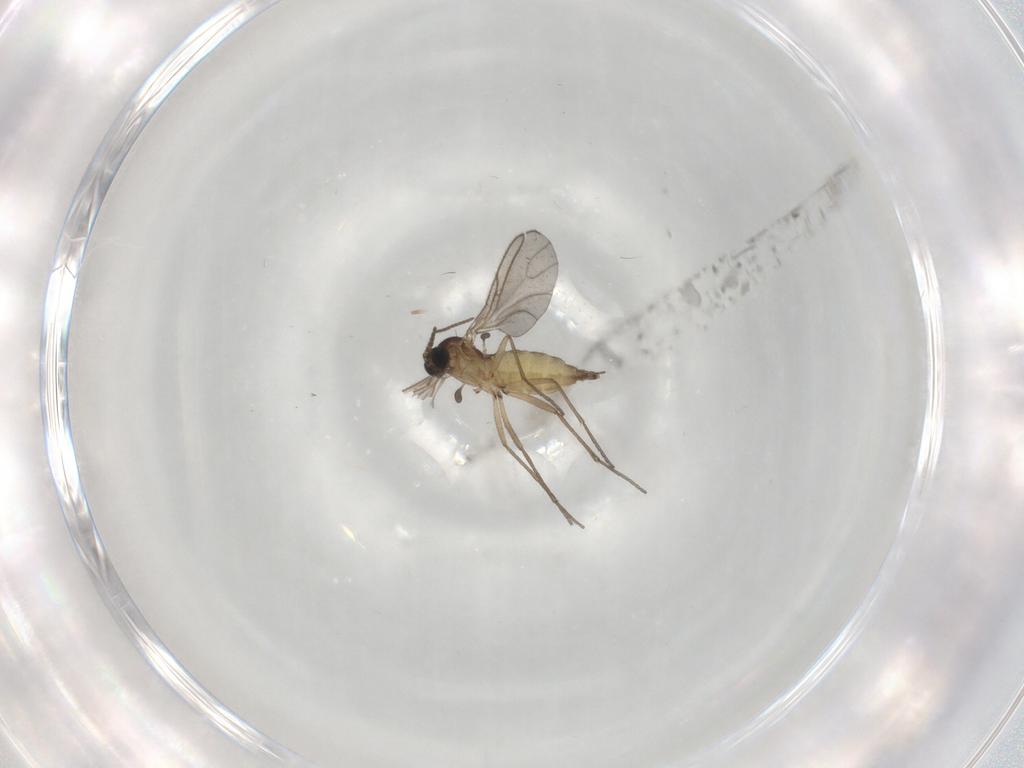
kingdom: Animalia
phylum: Arthropoda
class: Insecta
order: Diptera
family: Sciaridae
